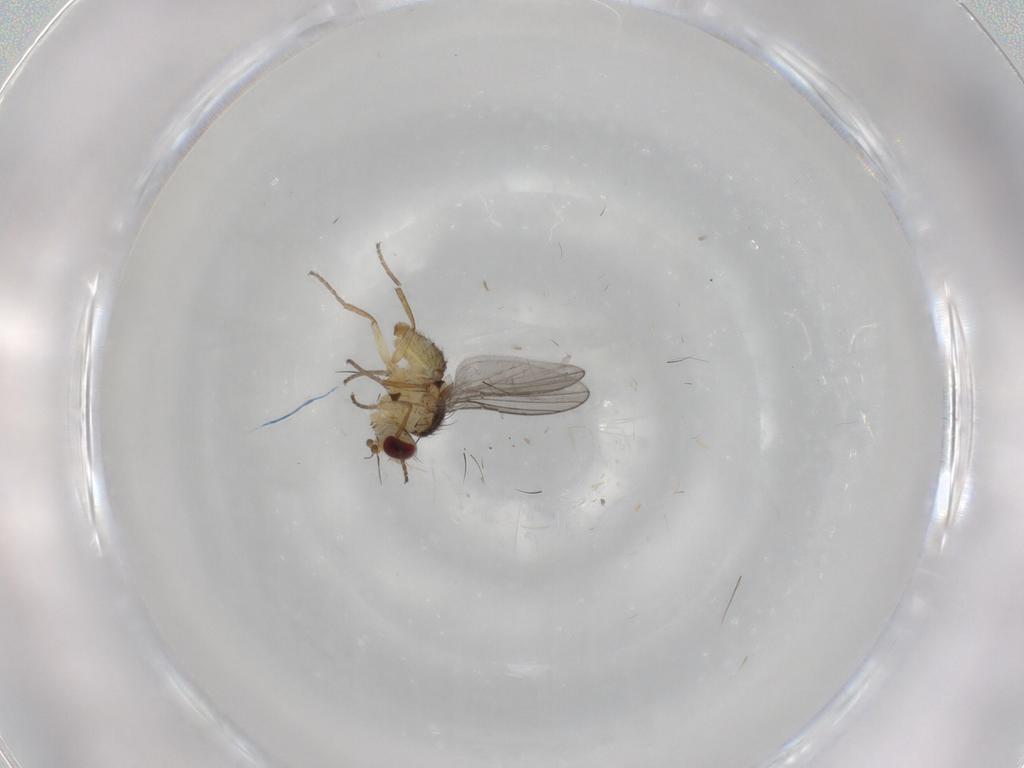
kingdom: Animalia
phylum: Arthropoda
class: Insecta
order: Diptera
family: Agromyzidae
